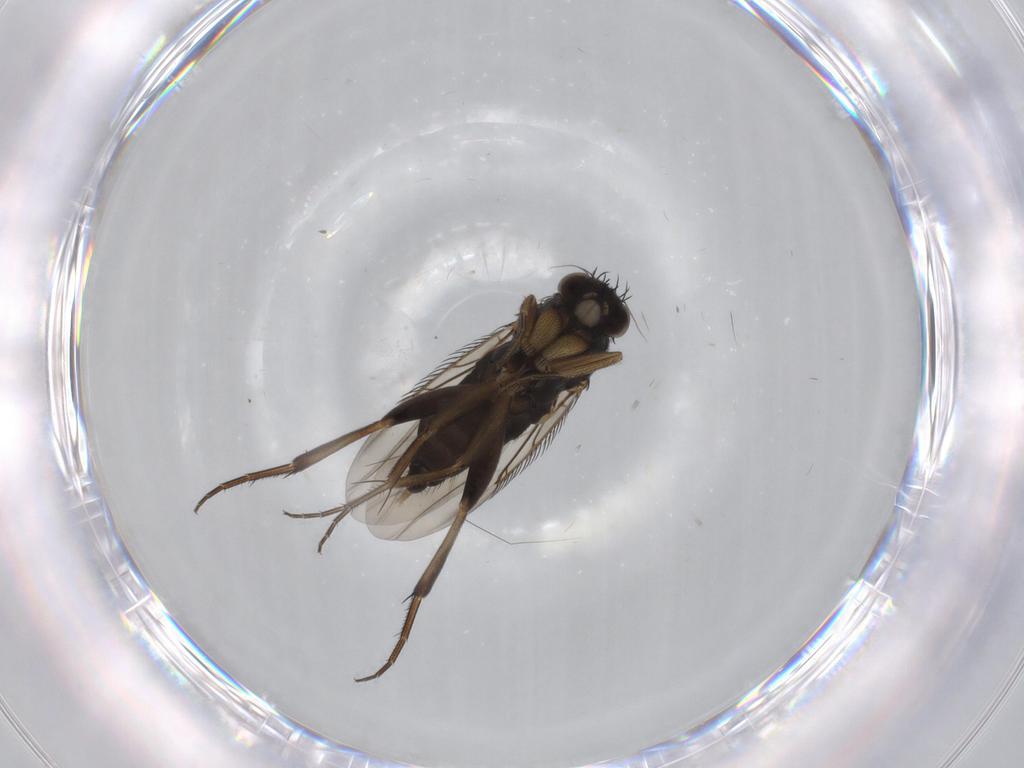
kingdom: Animalia
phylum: Arthropoda
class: Insecta
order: Diptera
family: Phoridae
